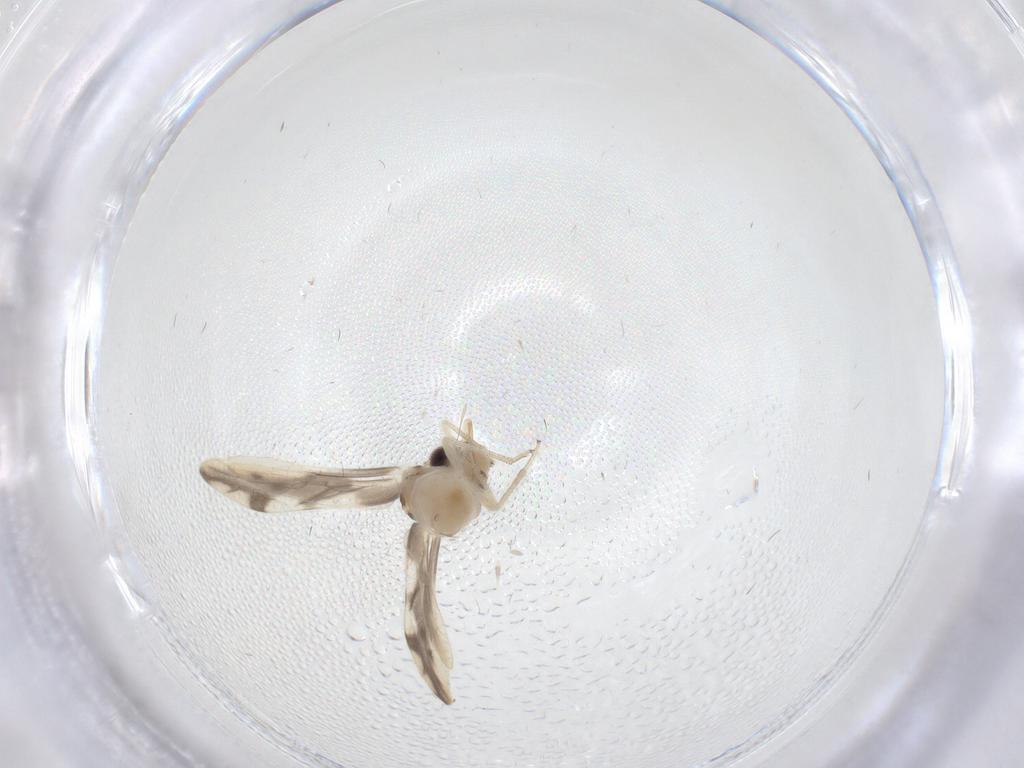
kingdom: Animalia
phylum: Arthropoda
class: Insecta
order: Psocodea
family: Caeciliusidae
